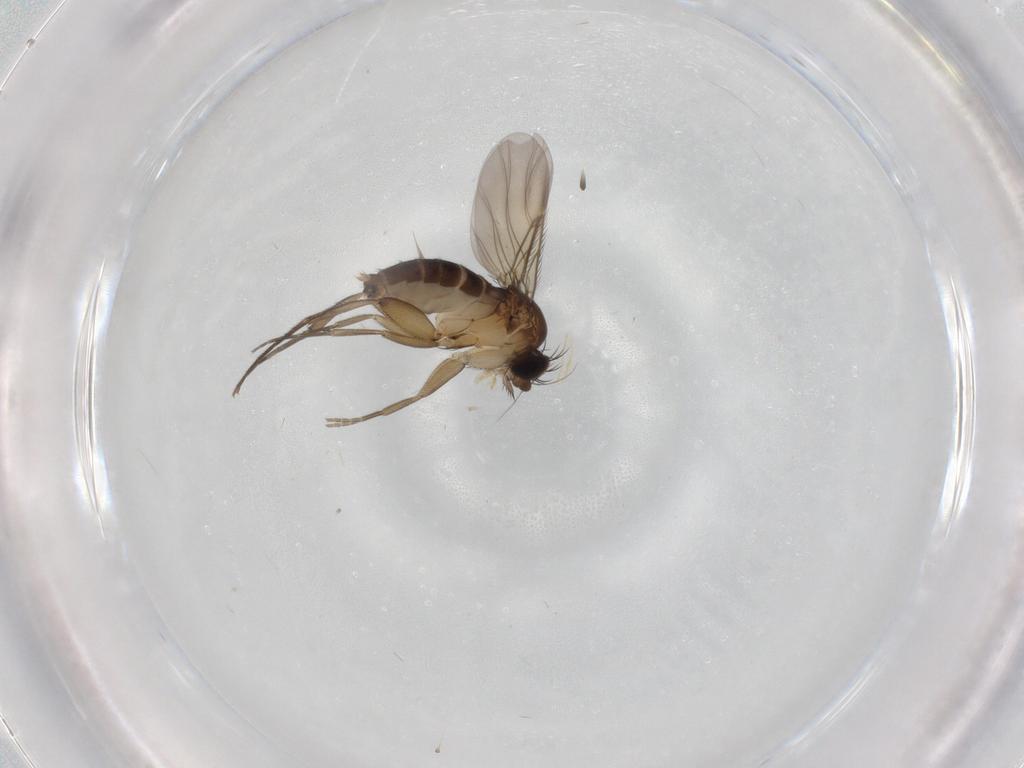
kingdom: Animalia
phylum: Arthropoda
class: Insecta
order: Diptera
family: Phoridae
